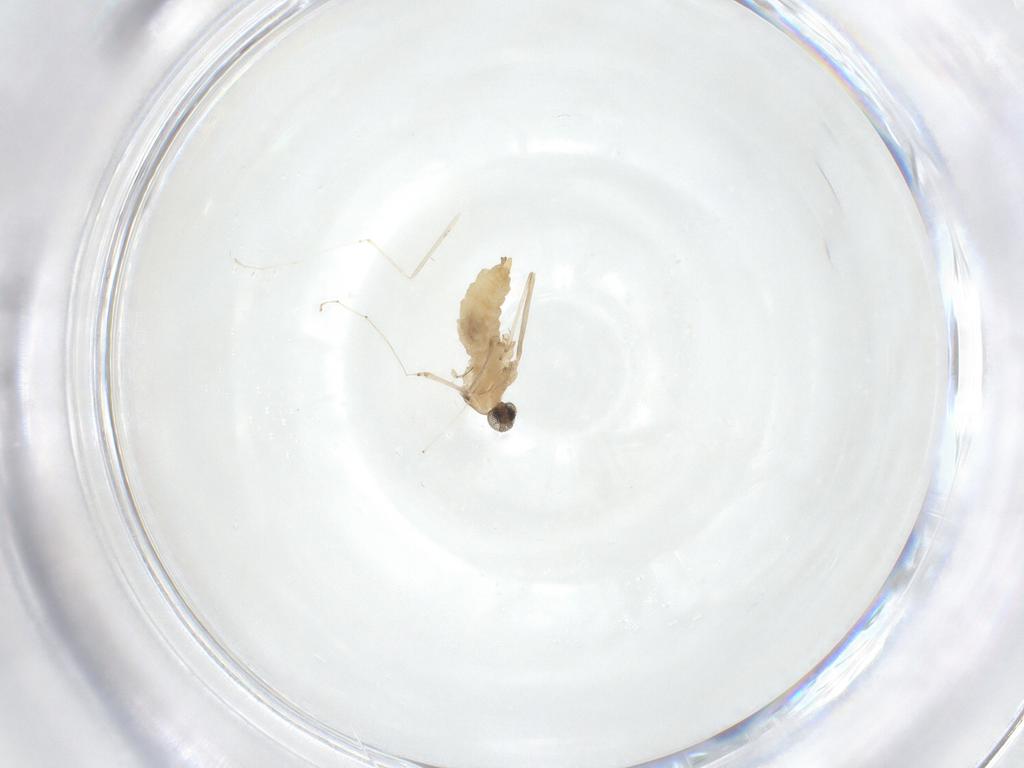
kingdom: Animalia
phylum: Arthropoda
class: Insecta
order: Diptera
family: Cecidomyiidae
